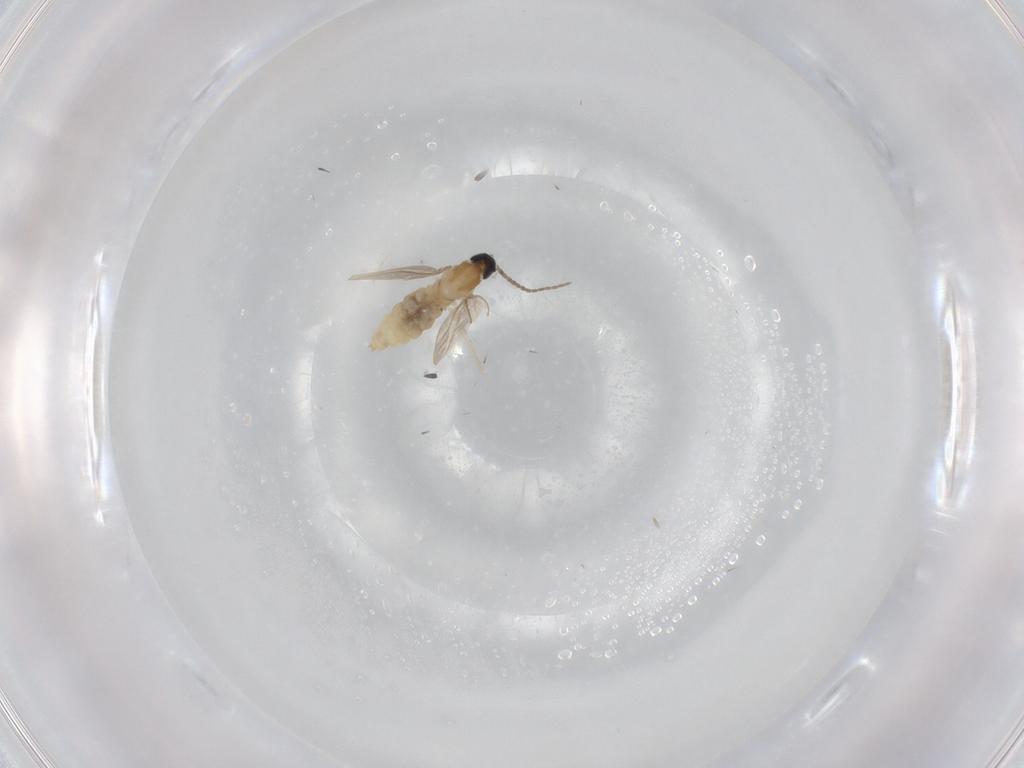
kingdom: Animalia
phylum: Arthropoda
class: Insecta
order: Diptera
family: Cecidomyiidae
